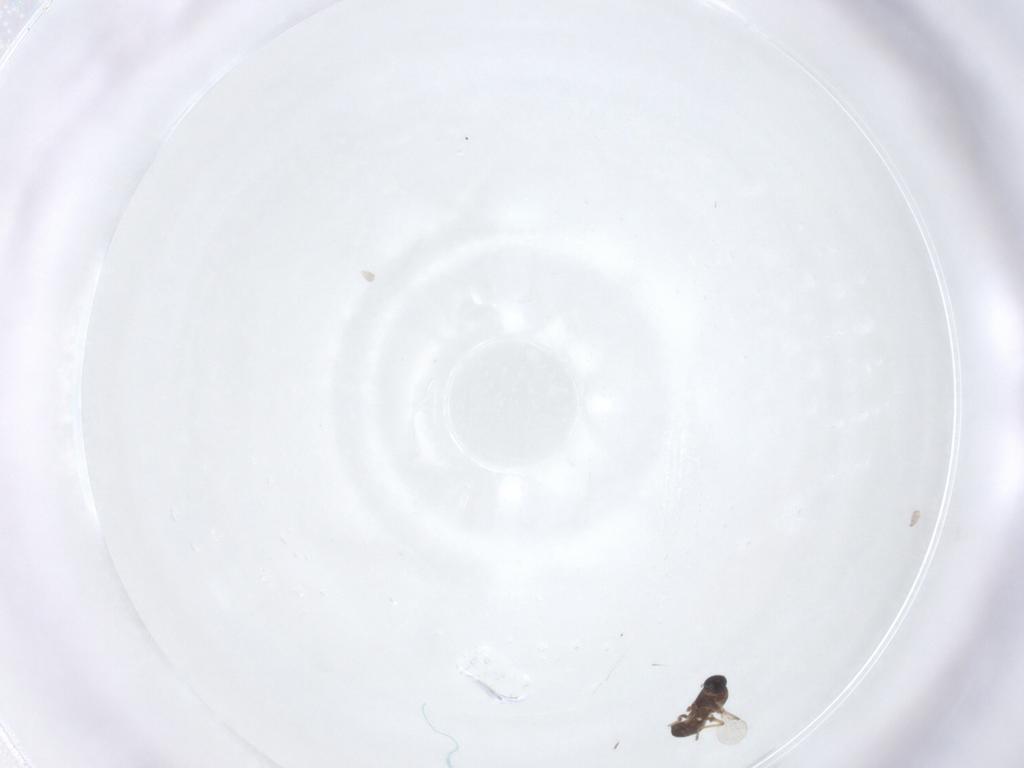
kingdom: Animalia
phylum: Arthropoda
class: Insecta
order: Diptera
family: Ceratopogonidae
